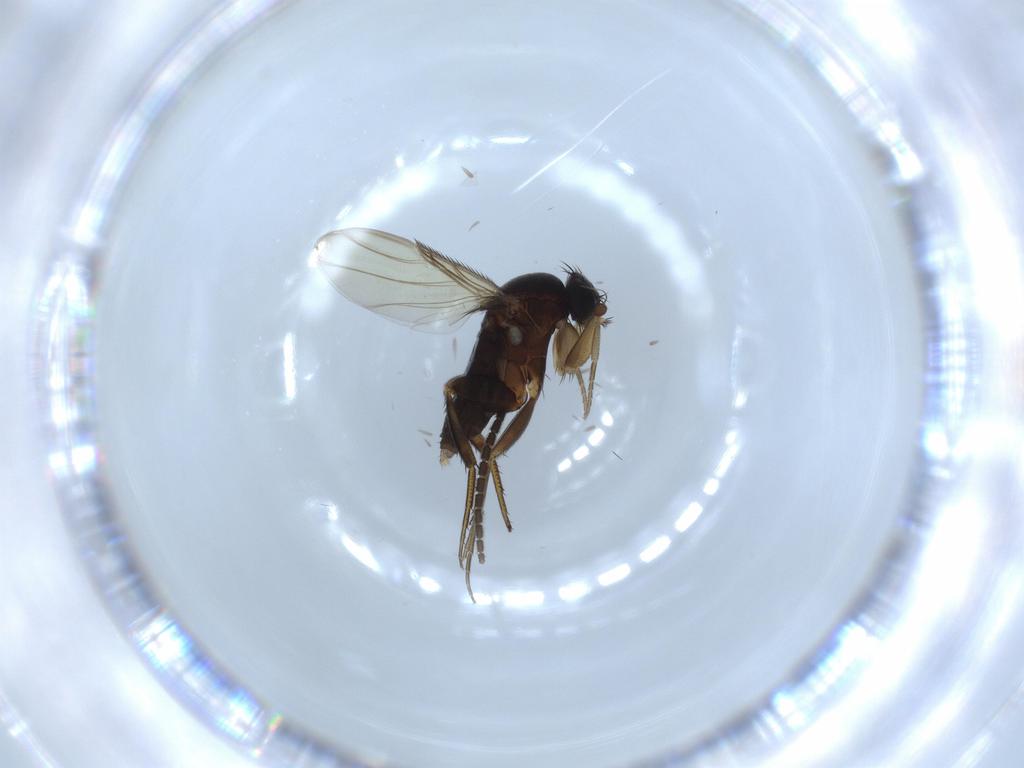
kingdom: Animalia
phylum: Arthropoda
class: Insecta
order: Diptera
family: Phoridae
